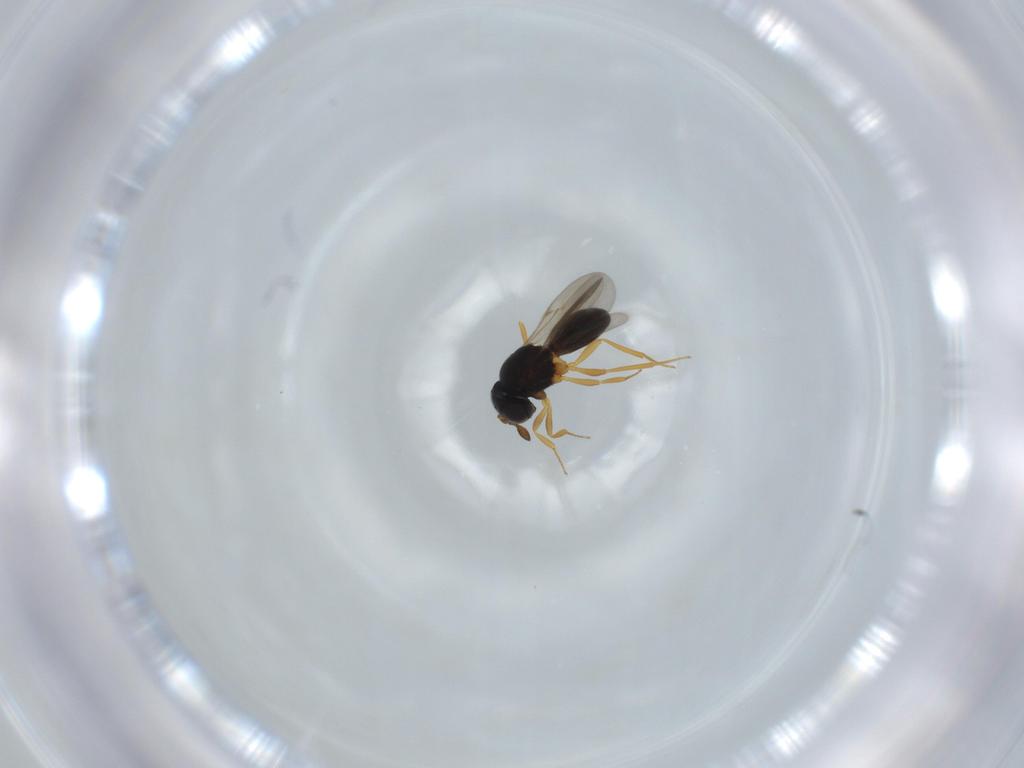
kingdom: Animalia
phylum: Arthropoda
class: Insecta
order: Hymenoptera
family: Scelionidae
